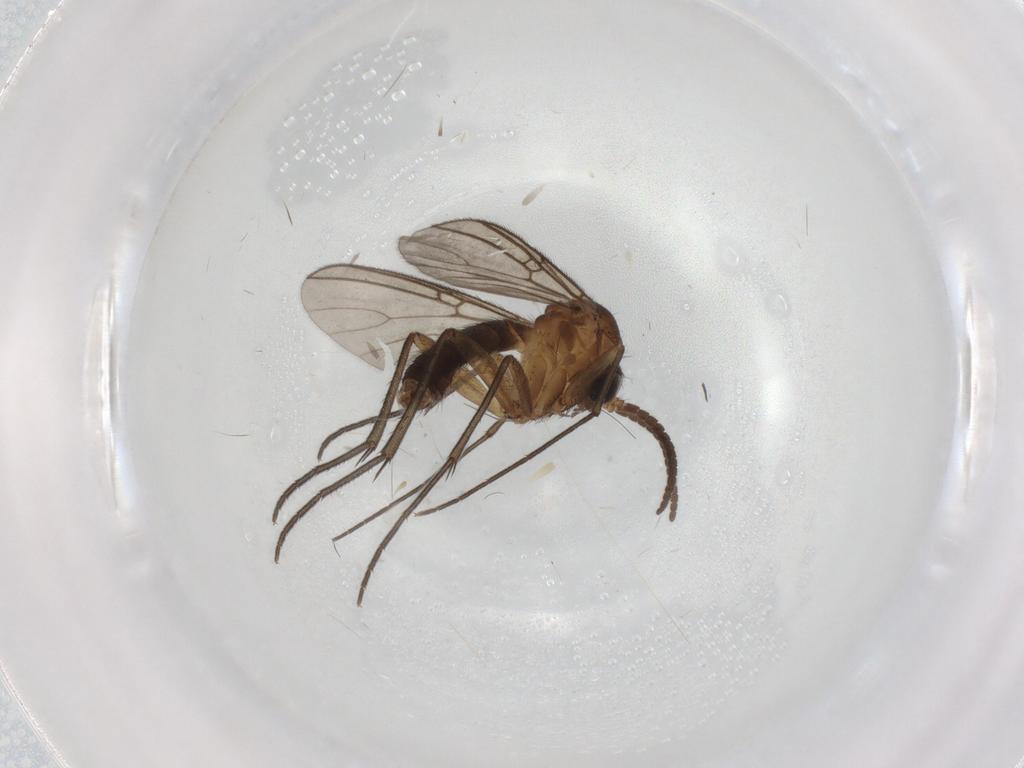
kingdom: Animalia
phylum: Arthropoda
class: Insecta
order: Diptera
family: Mycetophilidae
